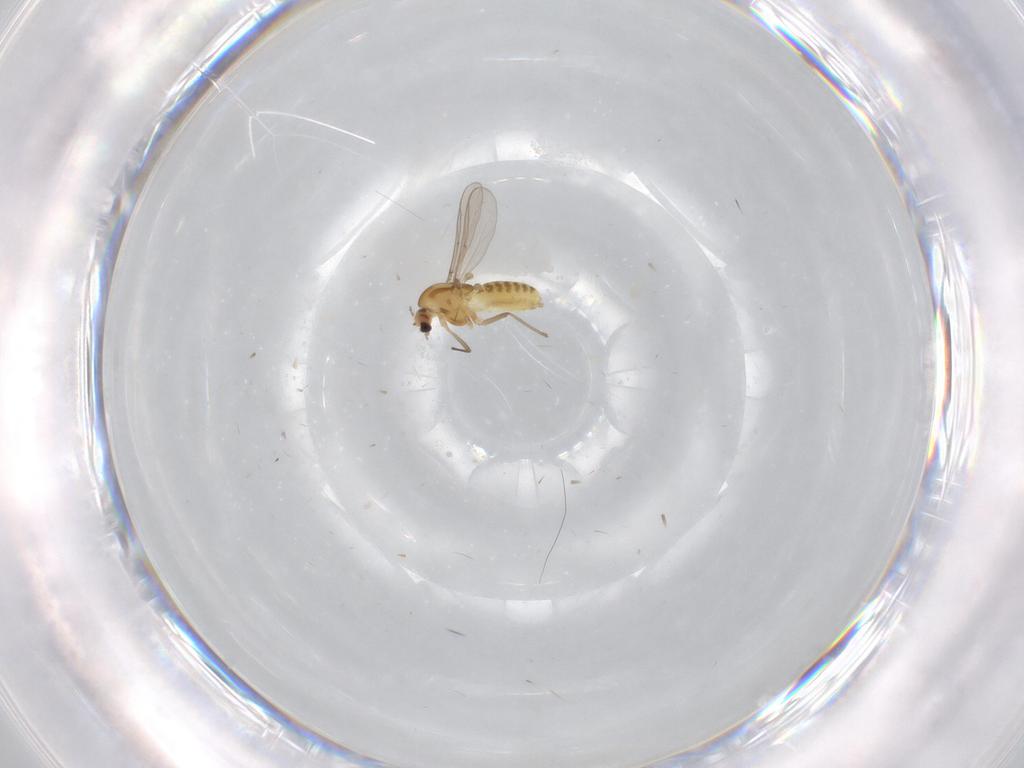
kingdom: Animalia
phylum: Arthropoda
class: Insecta
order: Diptera
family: Chironomidae
